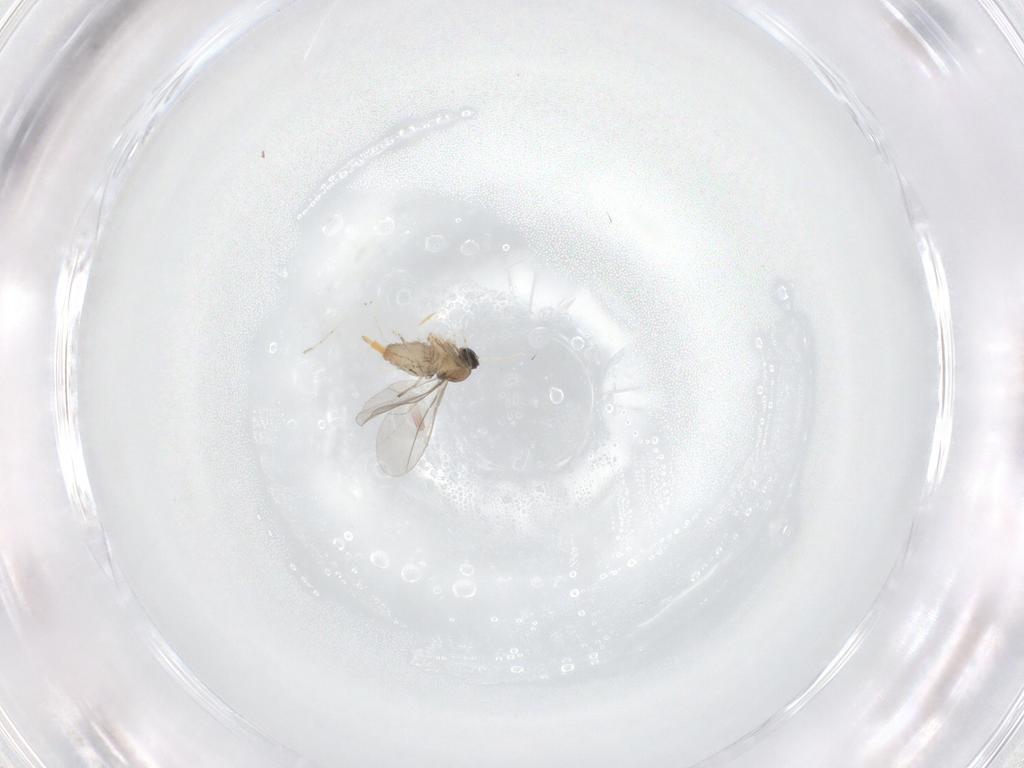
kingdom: Animalia
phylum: Arthropoda
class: Insecta
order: Diptera
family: Cecidomyiidae
